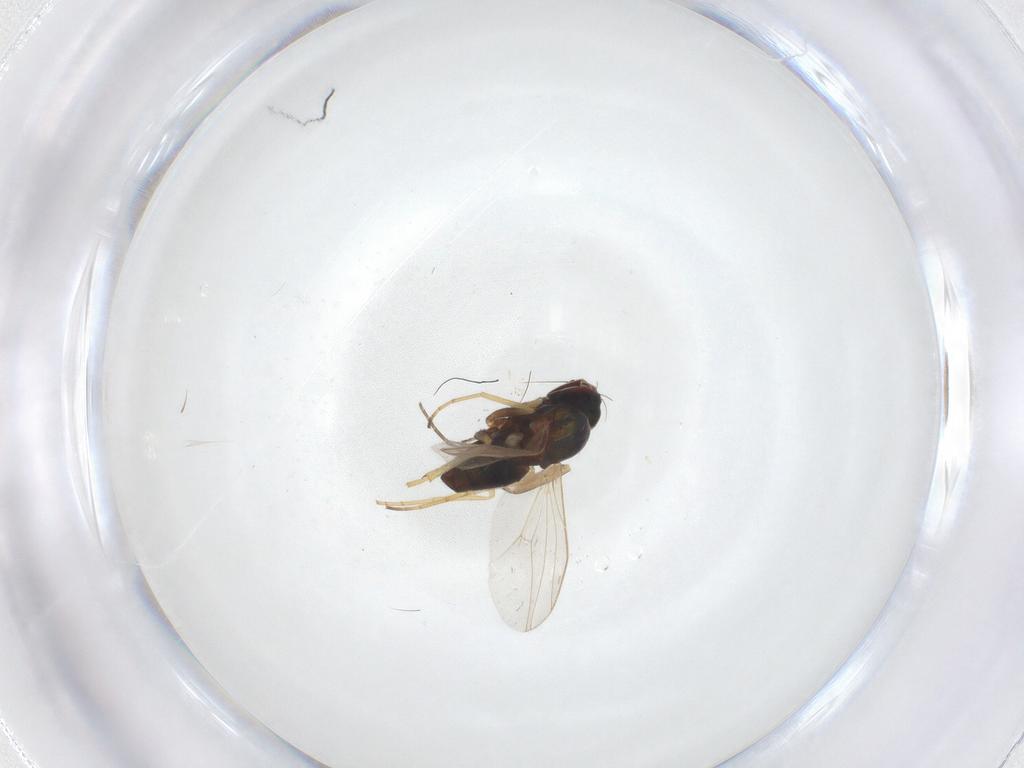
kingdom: Animalia
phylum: Arthropoda
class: Insecta
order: Diptera
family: Dolichopodidae
